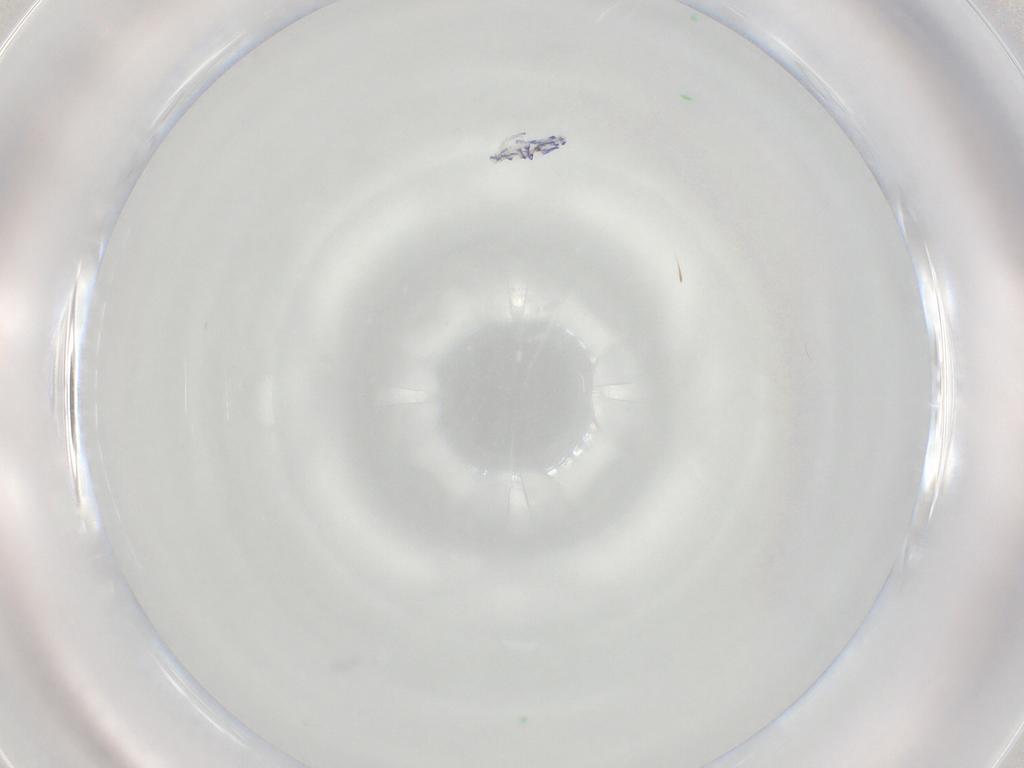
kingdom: Animalia
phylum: Arthropoda
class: Collembola
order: Entomobryomorpha
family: Entomobryidae
